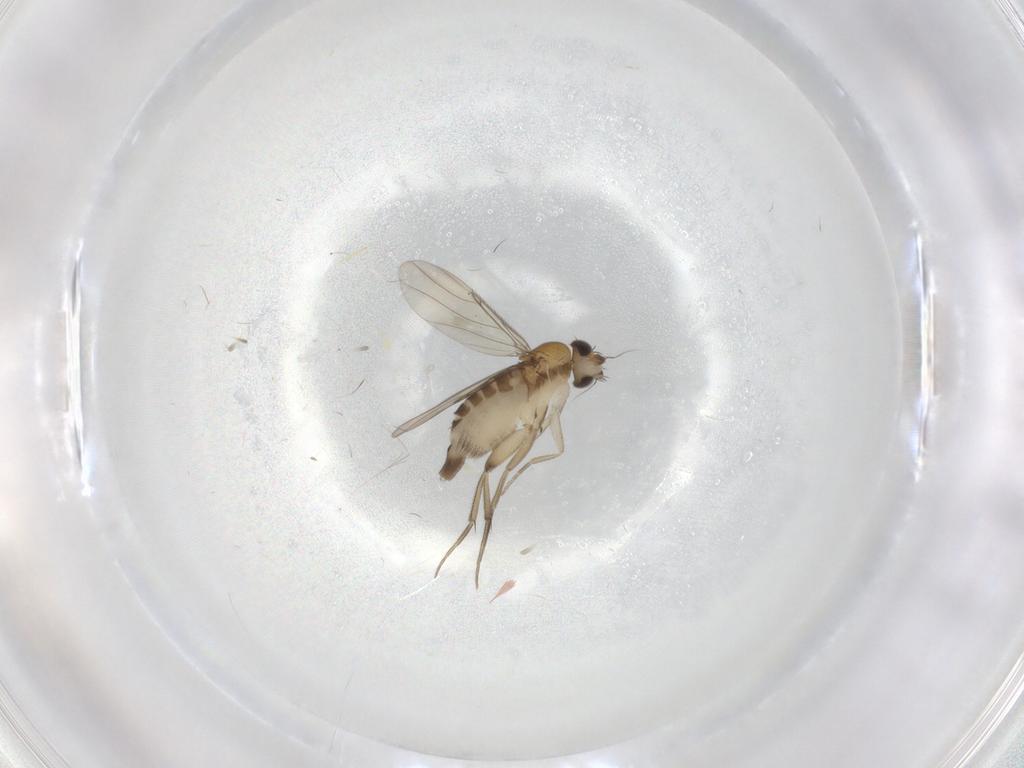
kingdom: Animalia
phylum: Arthropoda
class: Insecta
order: Diptera
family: Phoridae
